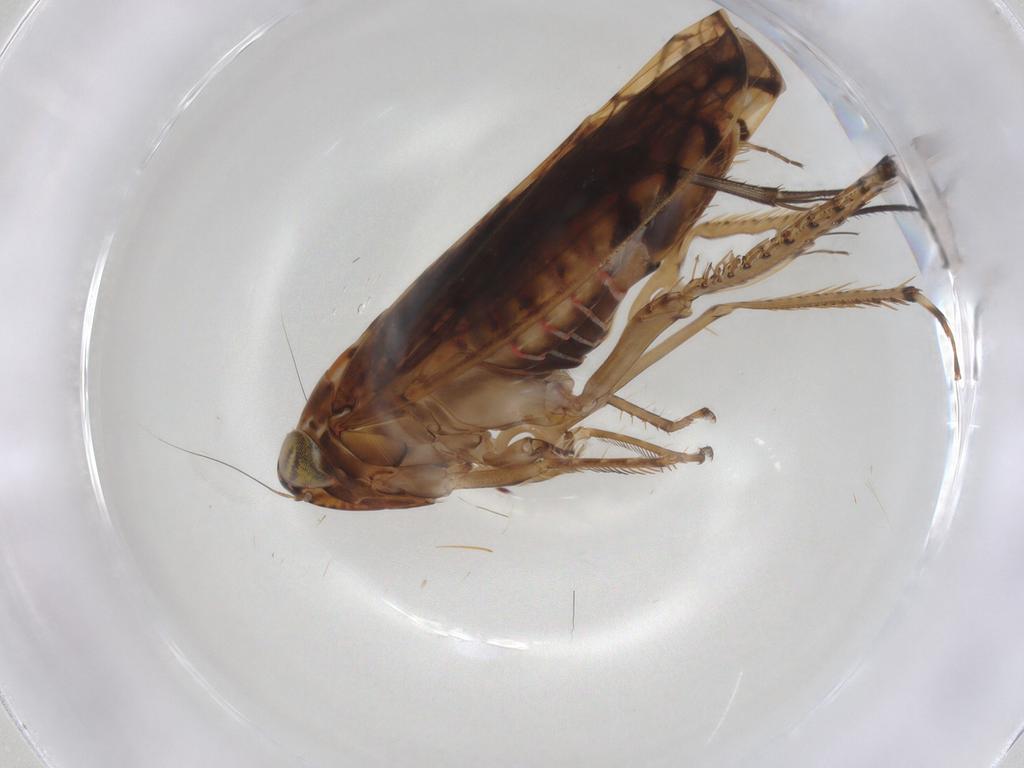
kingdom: Animalia
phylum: Arthropoda
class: Insecta
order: Hemiptera
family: Cicadellidae
